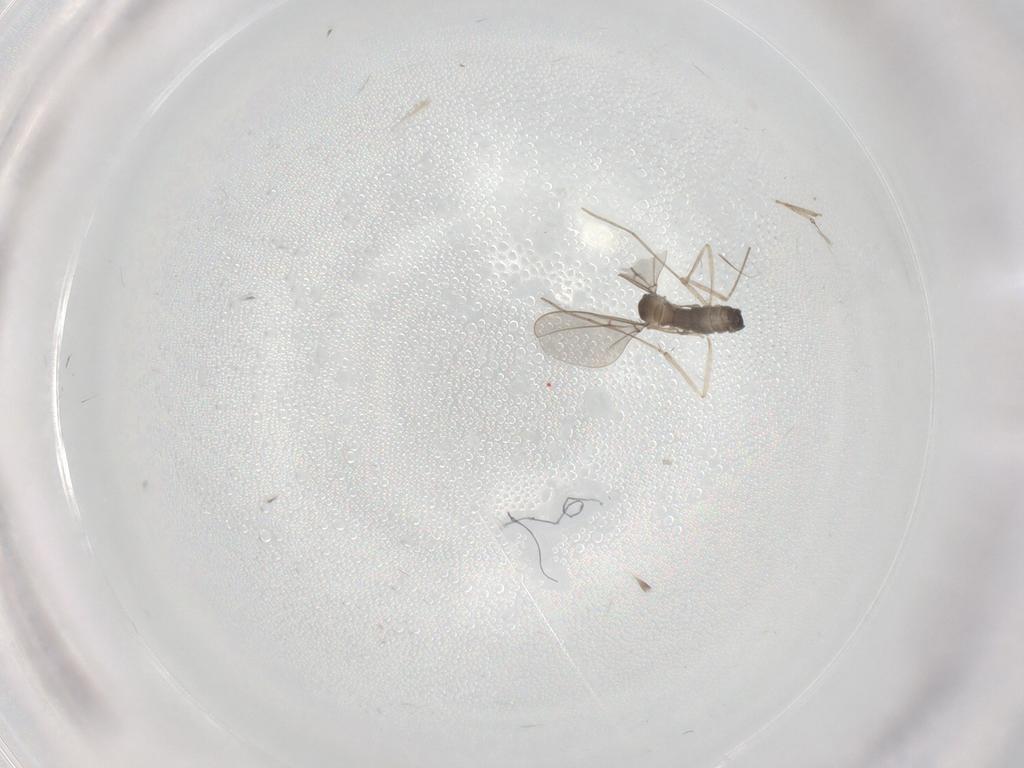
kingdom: Animalia
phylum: Arthropoda
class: Insecta
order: Diptera
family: Cecidomyiidae
